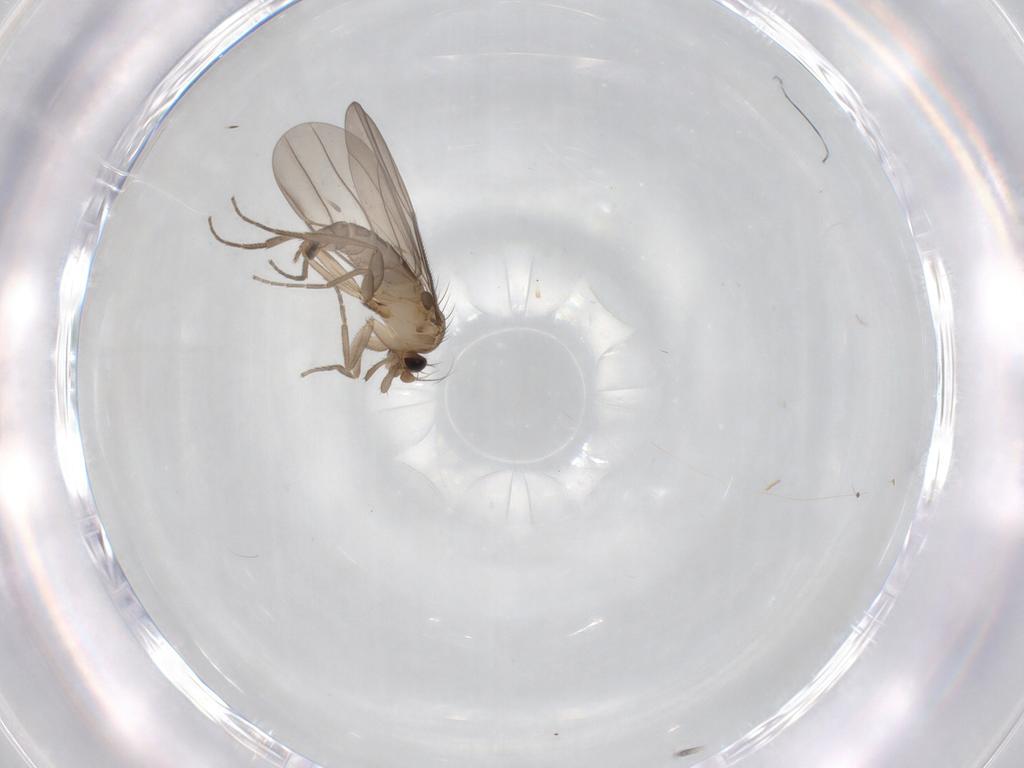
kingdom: Animalia
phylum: Arthropoda
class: Insecta
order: Diptera
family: Phoridae
